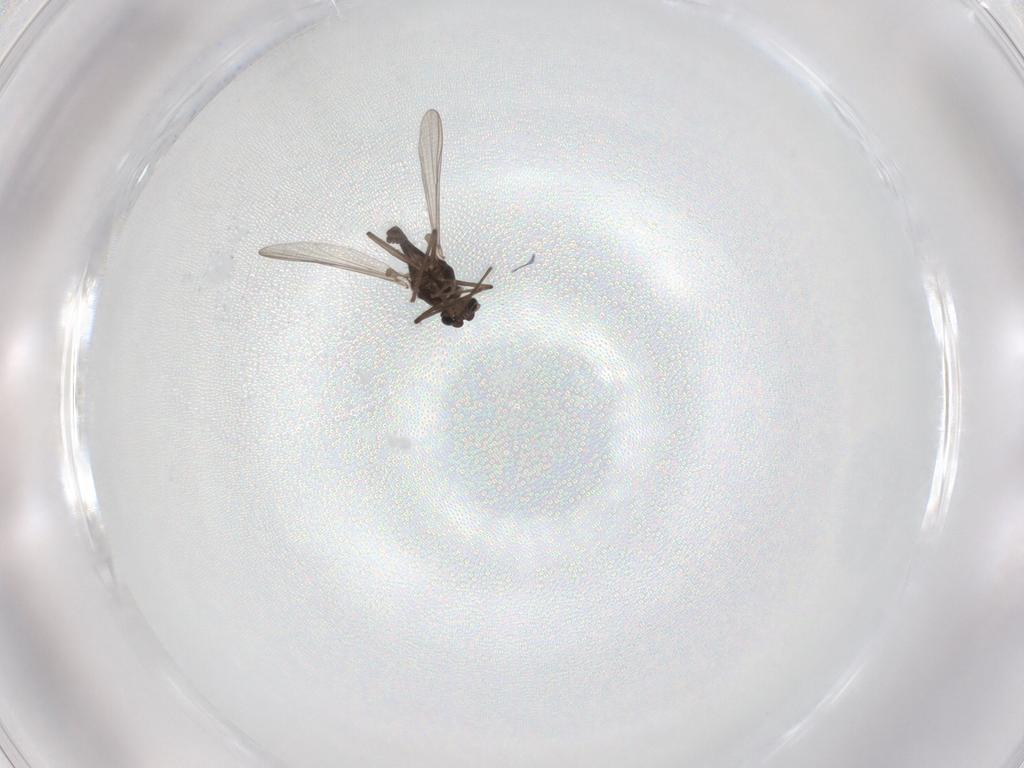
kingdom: Animalia
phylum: Arthropoda
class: Insecta
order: Diptera
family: Chironomidae
